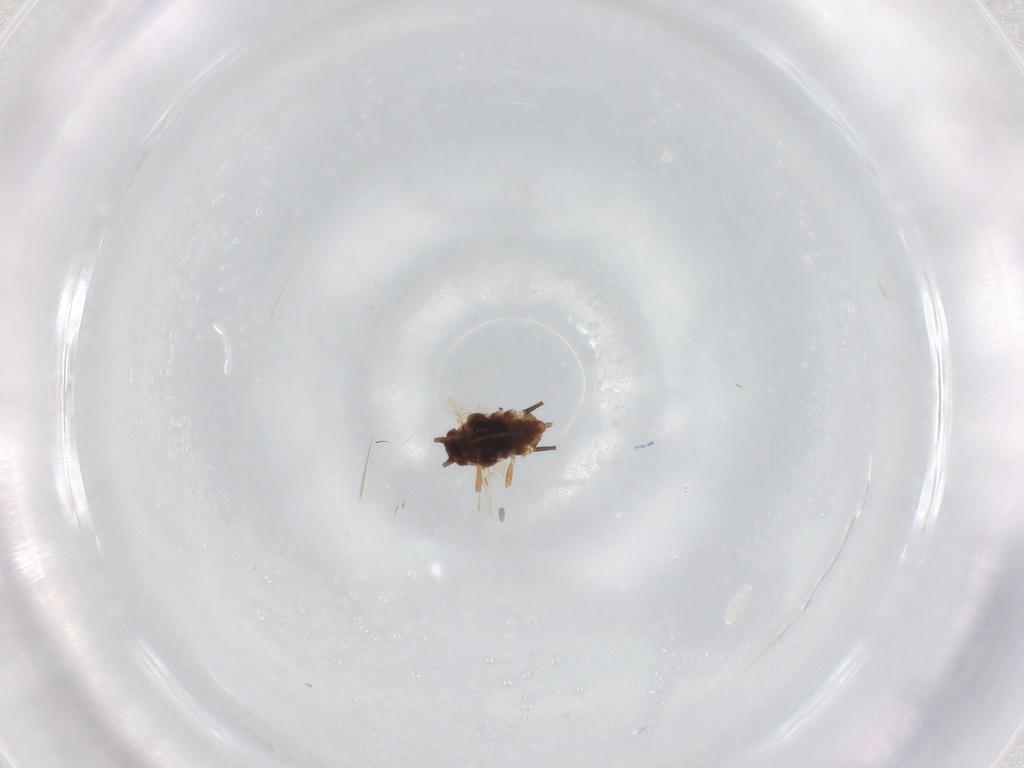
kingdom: Animalia
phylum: Arthropoda
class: Insecta
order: Hemiptera
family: Aphididae
